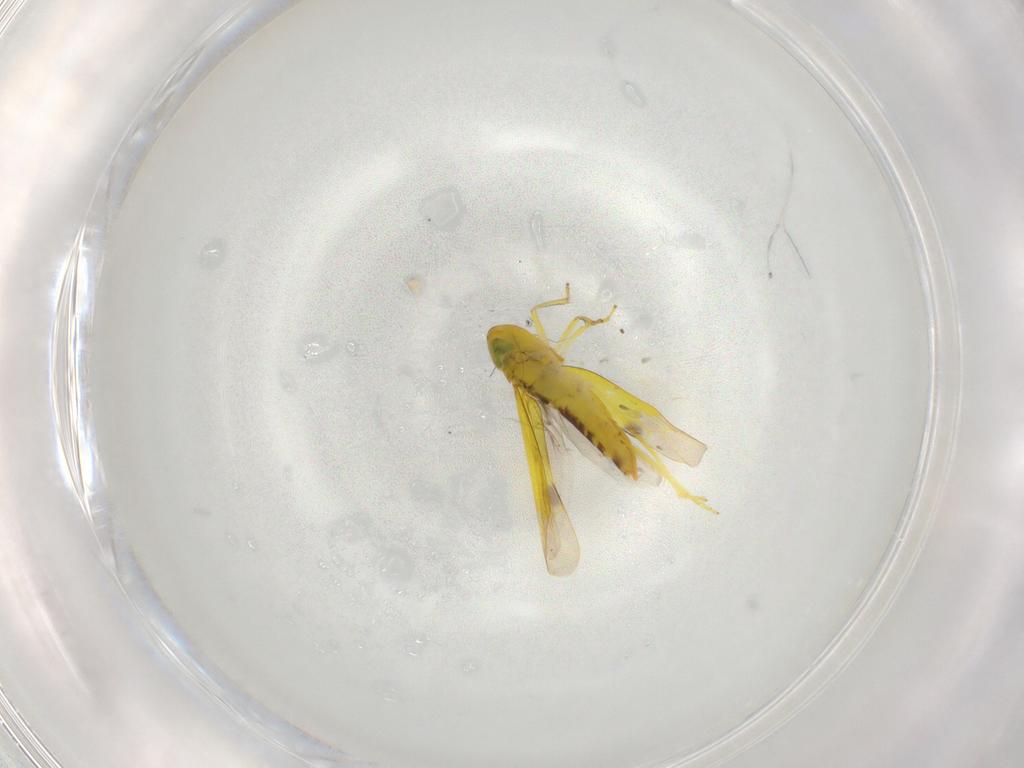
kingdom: Animalia
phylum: Arthropoda
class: Insecta
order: Hemiptera
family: Cicadellidae
